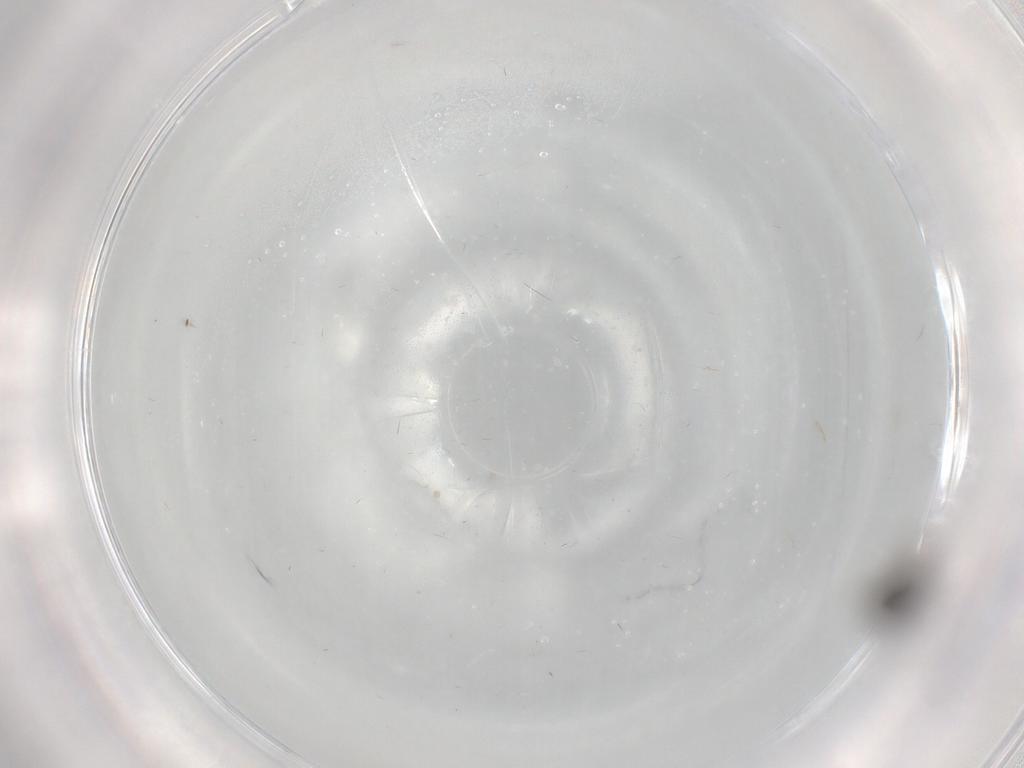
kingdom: Animalia
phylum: Arthropoda
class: Insecta
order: Diptera
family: Phoridae
